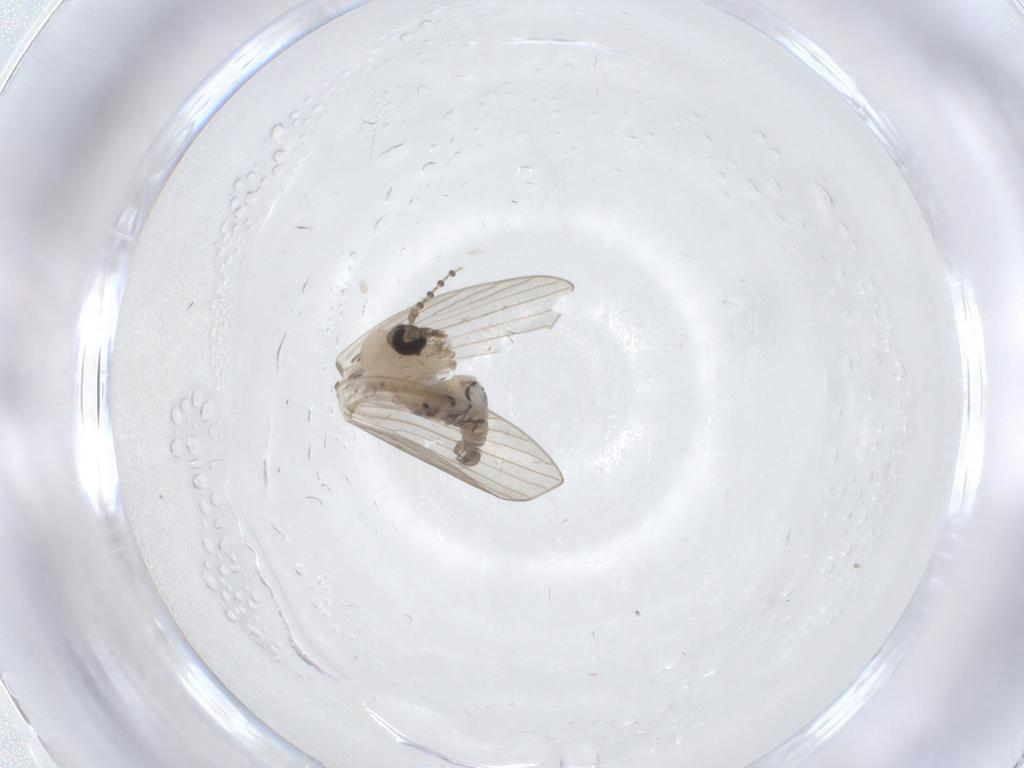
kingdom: Animalia
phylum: Arthropoda
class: Insecta
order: Diptera
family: Psychodidae
